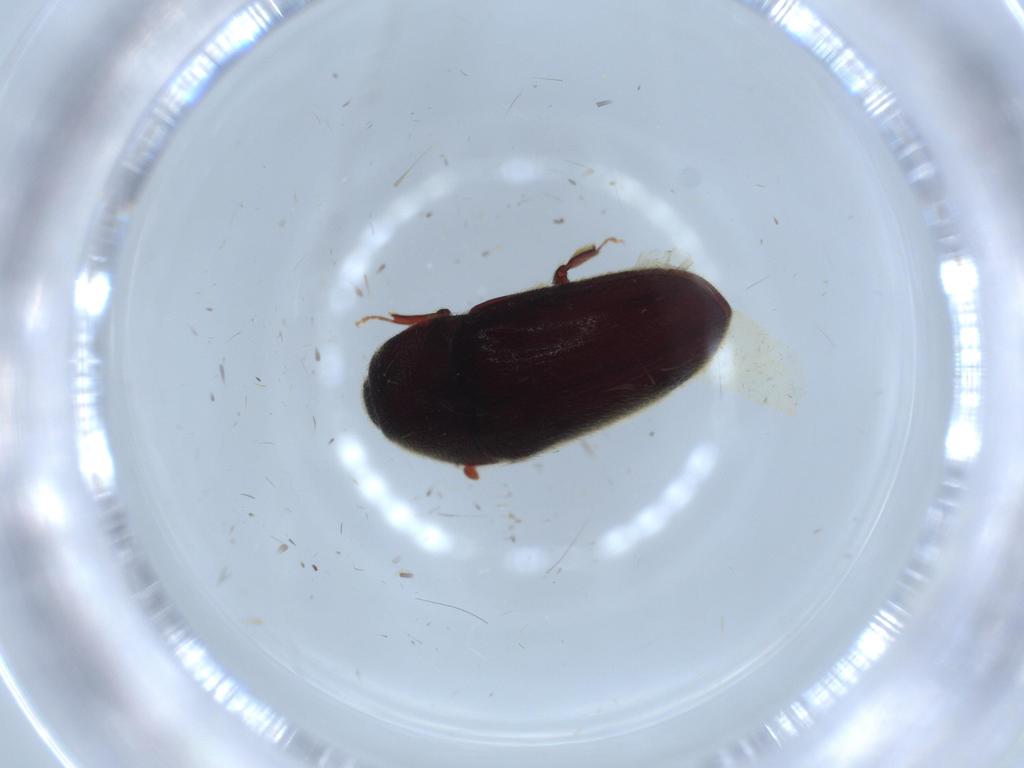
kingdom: Animalia
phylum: Arthropoda
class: Insecta
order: Coleoptera
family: Throscidae
